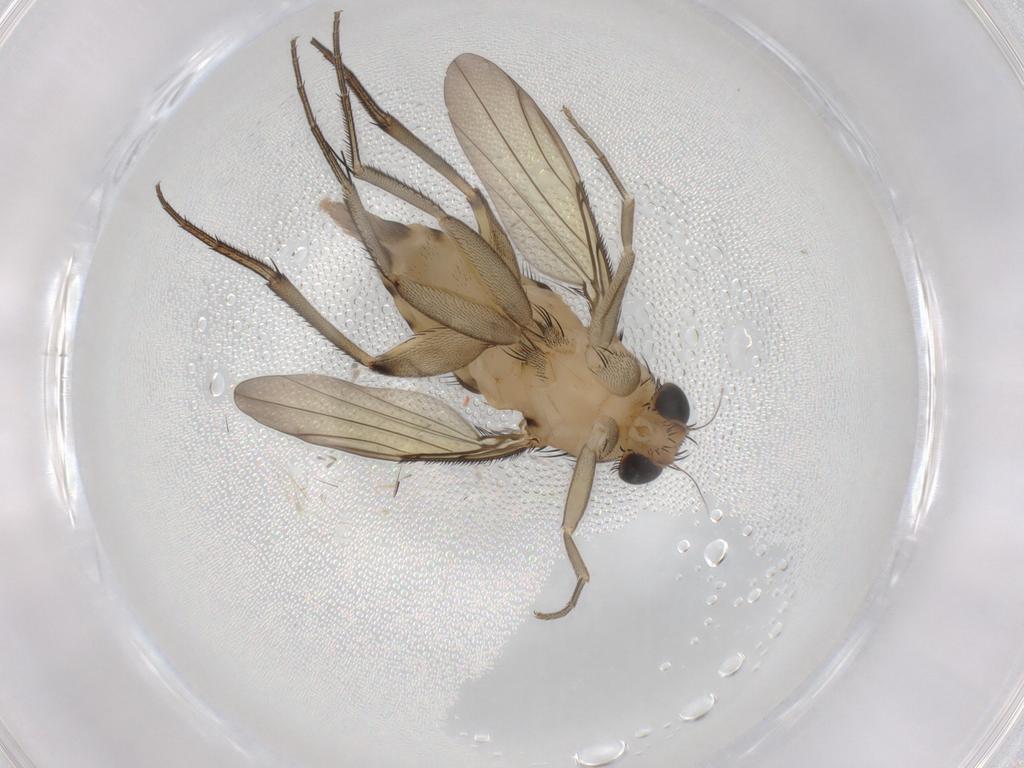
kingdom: Animalia
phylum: Arthropoda
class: Insecta
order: Diptera
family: Phoridae
